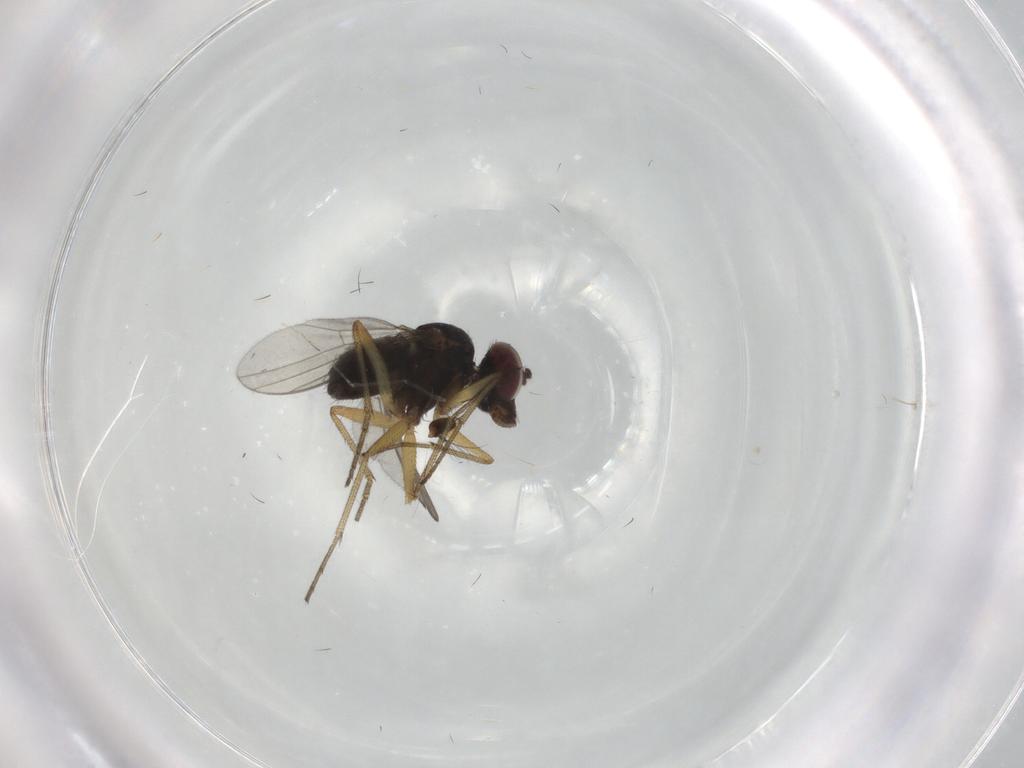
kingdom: Animalia
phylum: Arthropoda
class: Insecta
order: Diptera
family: Dolichopodidae
